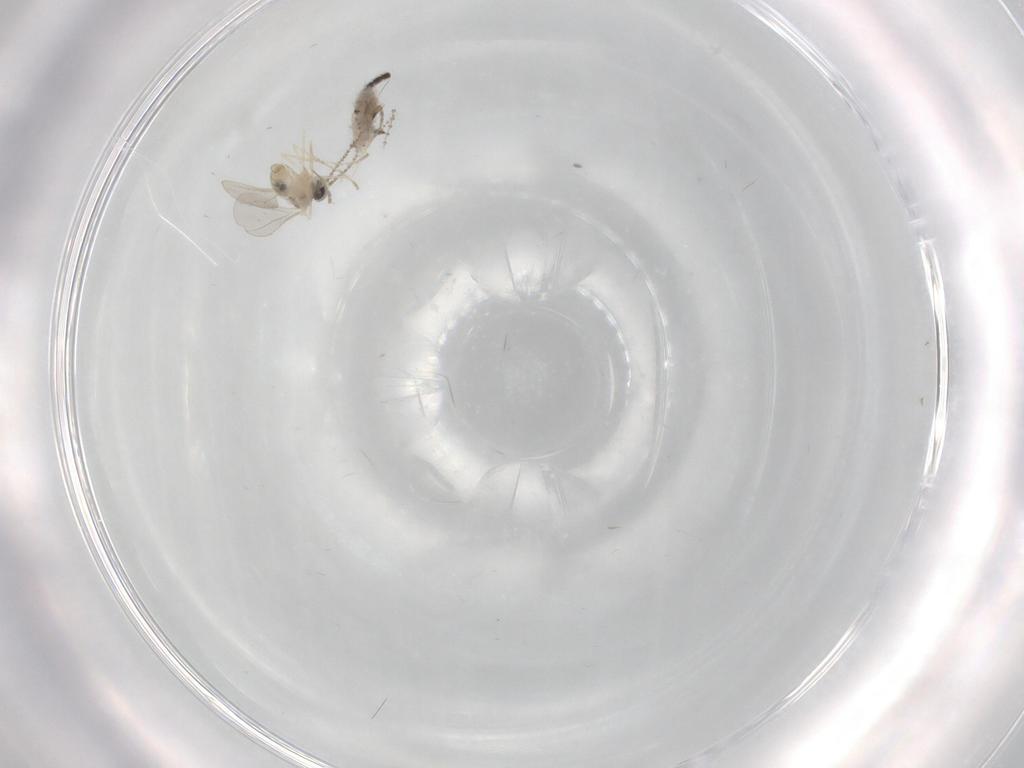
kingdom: Animalia
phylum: Arthropoda
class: Insecta
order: Diptera
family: Cecidomyiidae
